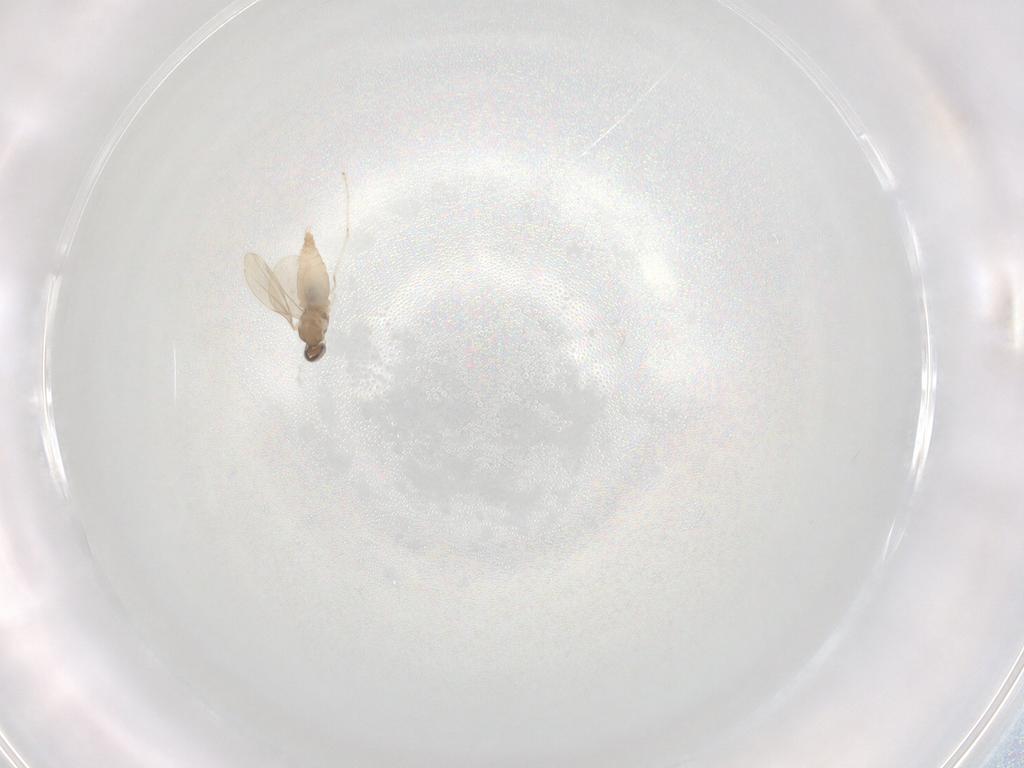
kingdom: Animalia
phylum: Arthropoda
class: Insecta
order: Diptera
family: Cecidomyiidae
